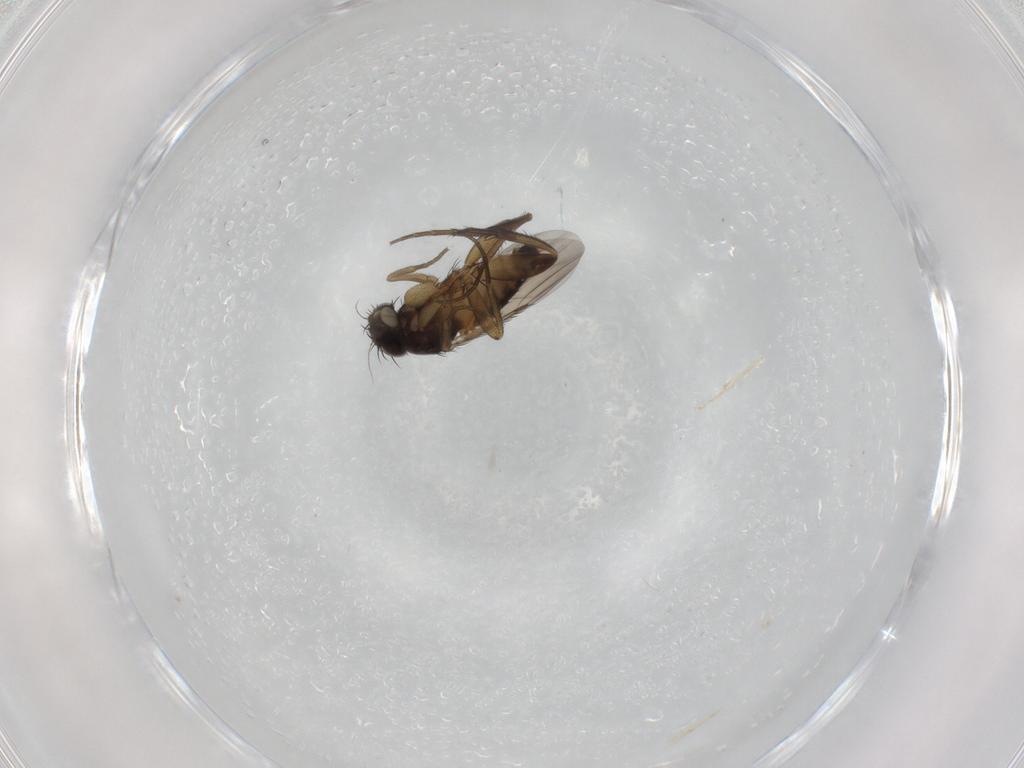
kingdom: Animalia
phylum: Arthropoda
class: Insecta
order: Diptera
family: Phoridae
